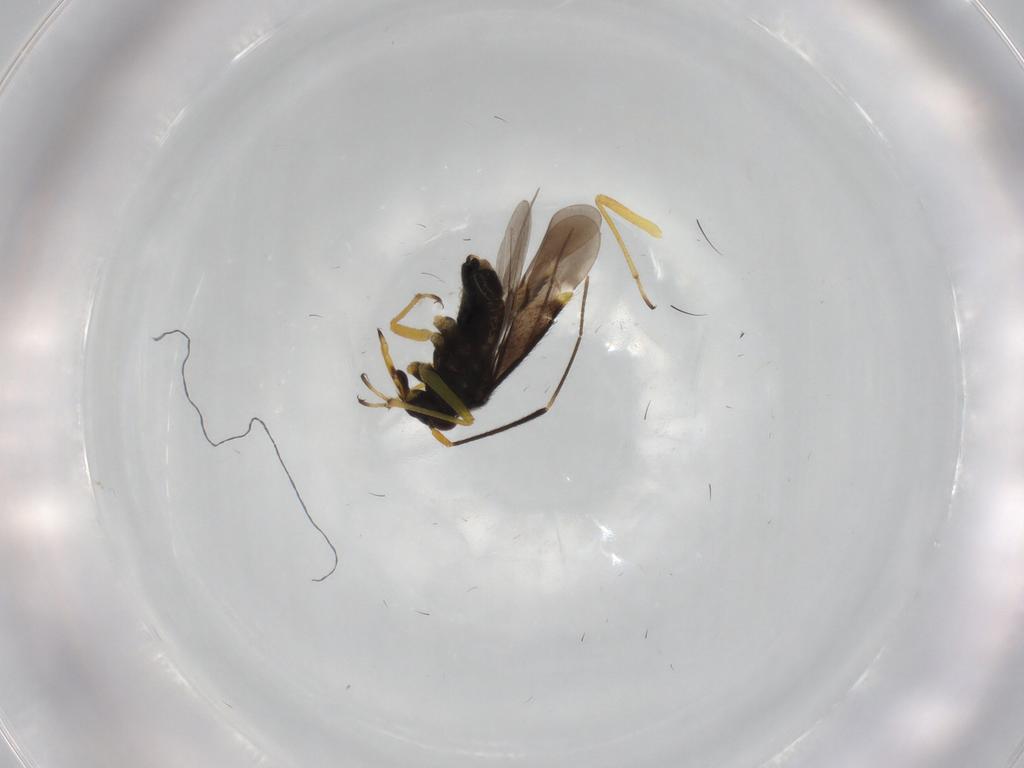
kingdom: Animalia
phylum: Arthropoda
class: Insecta
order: Hemiptera
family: Miridae
